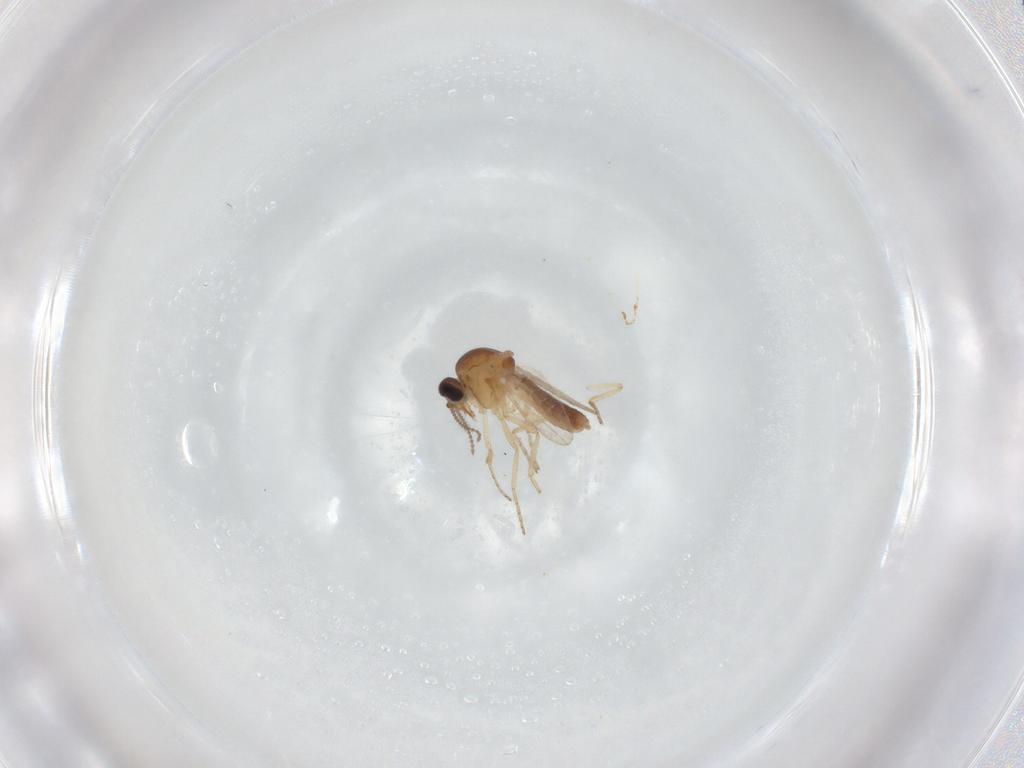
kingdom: Animalia
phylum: Arthropoda
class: Insecta
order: Diptera
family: Ceratopogonidae
